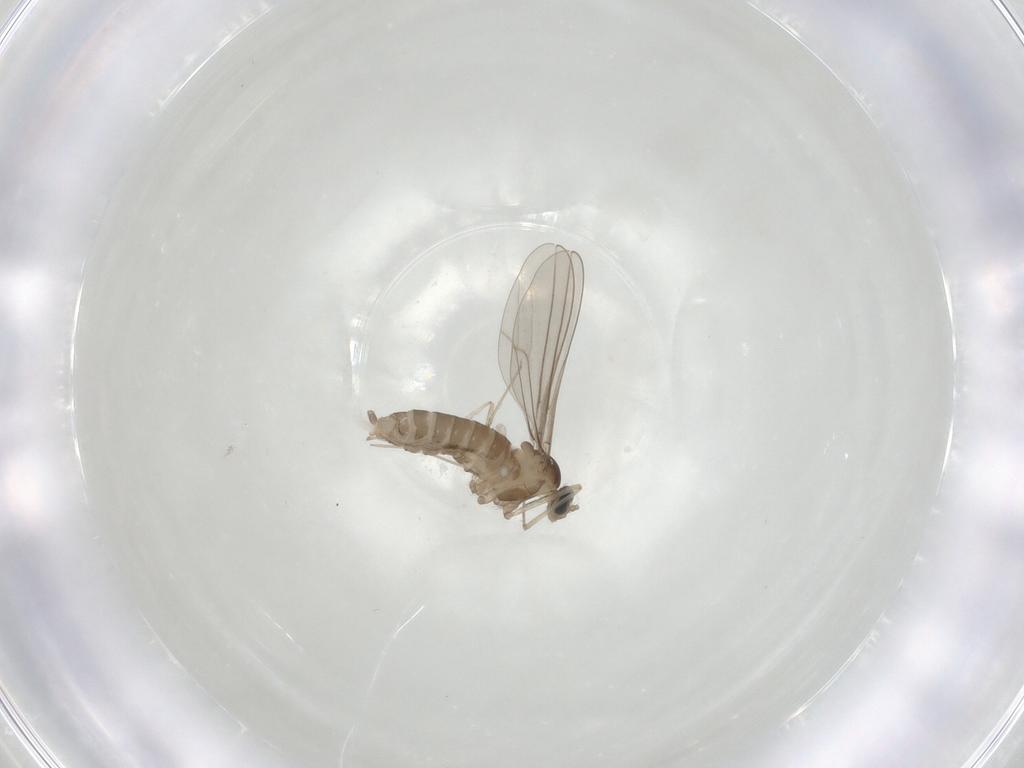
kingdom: Animalia
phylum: Arthropoda
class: Insecta
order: Diptera
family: Cecidomyiidae
